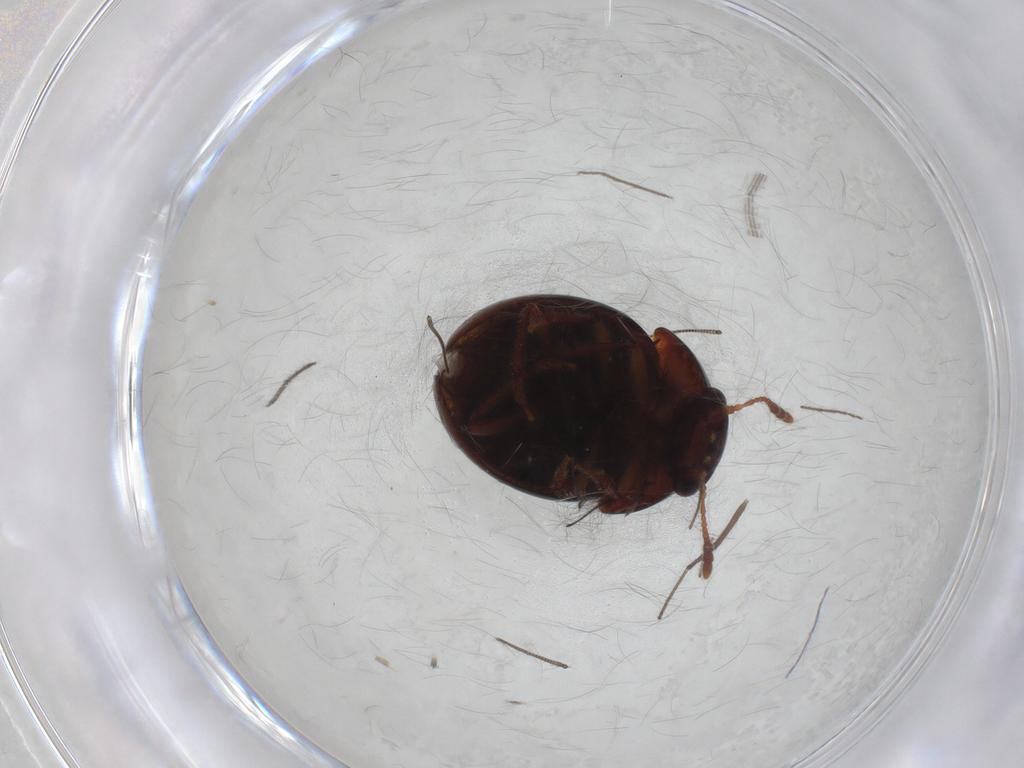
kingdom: Animalia
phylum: Arthropoda
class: Insecta
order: Coleoptera
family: Leiodidae
